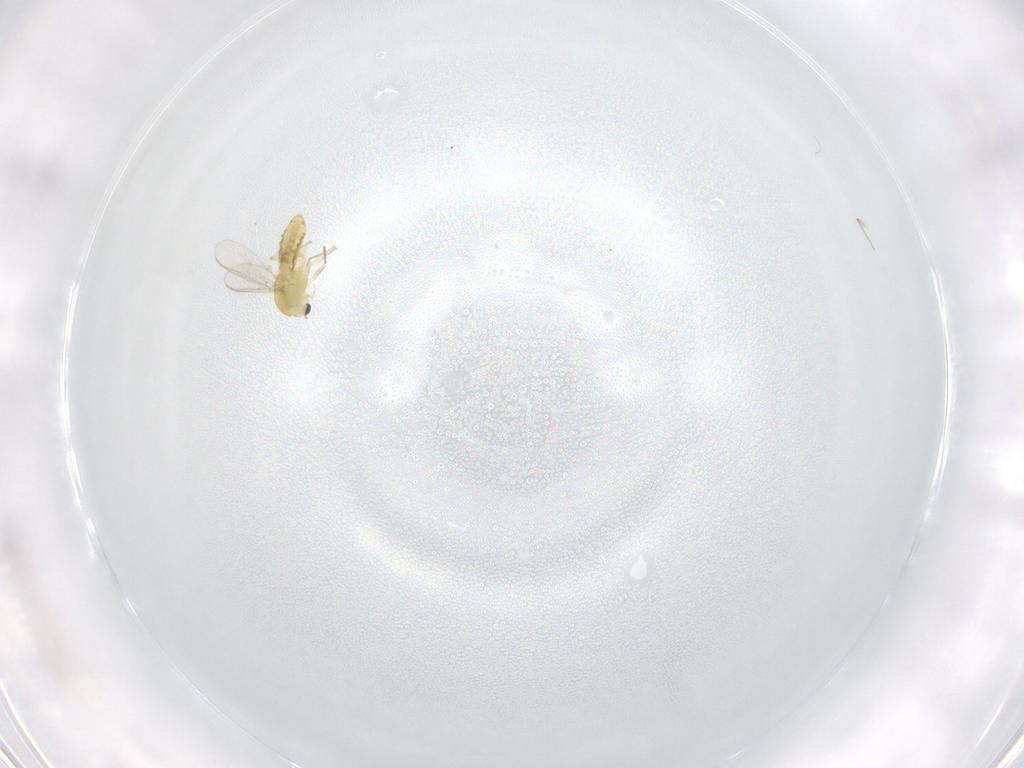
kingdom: Animalia
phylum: Arthropoda
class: Insecta
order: Diptera
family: Chironomidae
